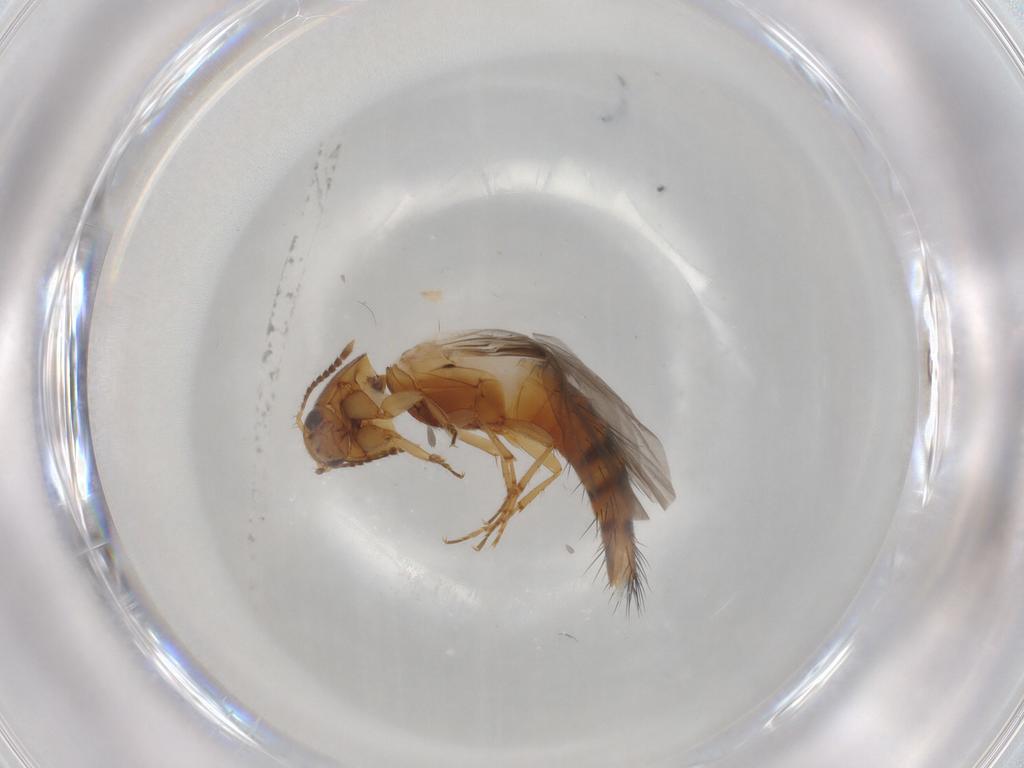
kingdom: Animalia
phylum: Arthropoda
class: Insecta
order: Coleoptera
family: Staphylinidae
